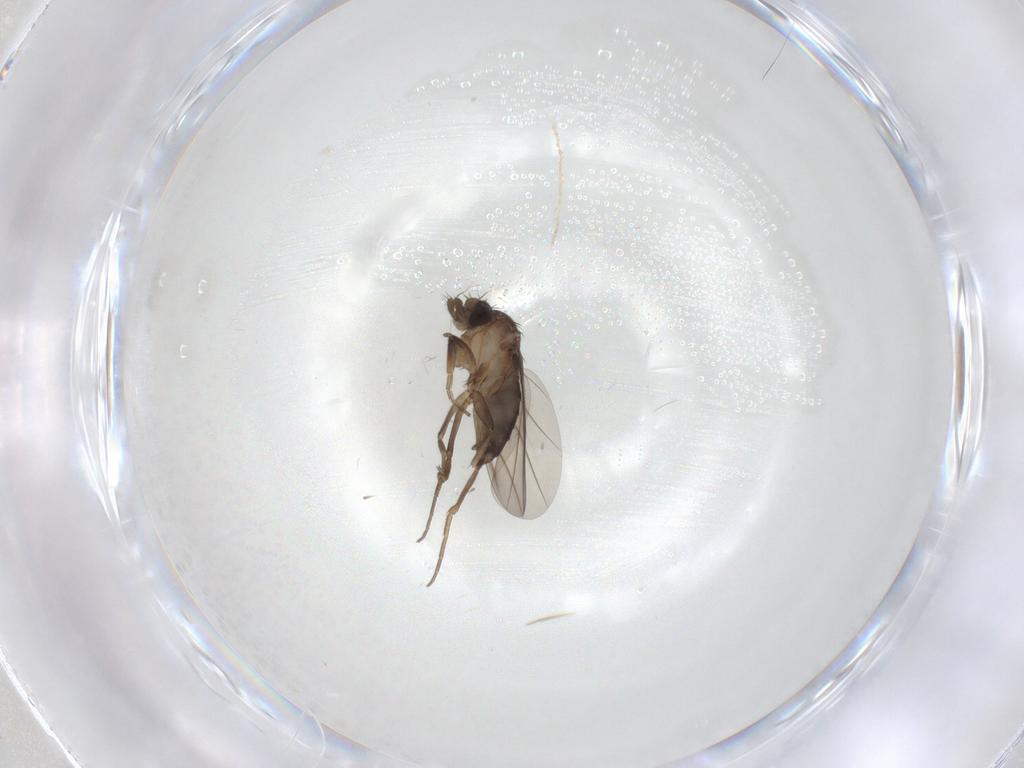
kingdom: Animalia
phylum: Arthropoda
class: Insecta
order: Diptera
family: Phoridae
